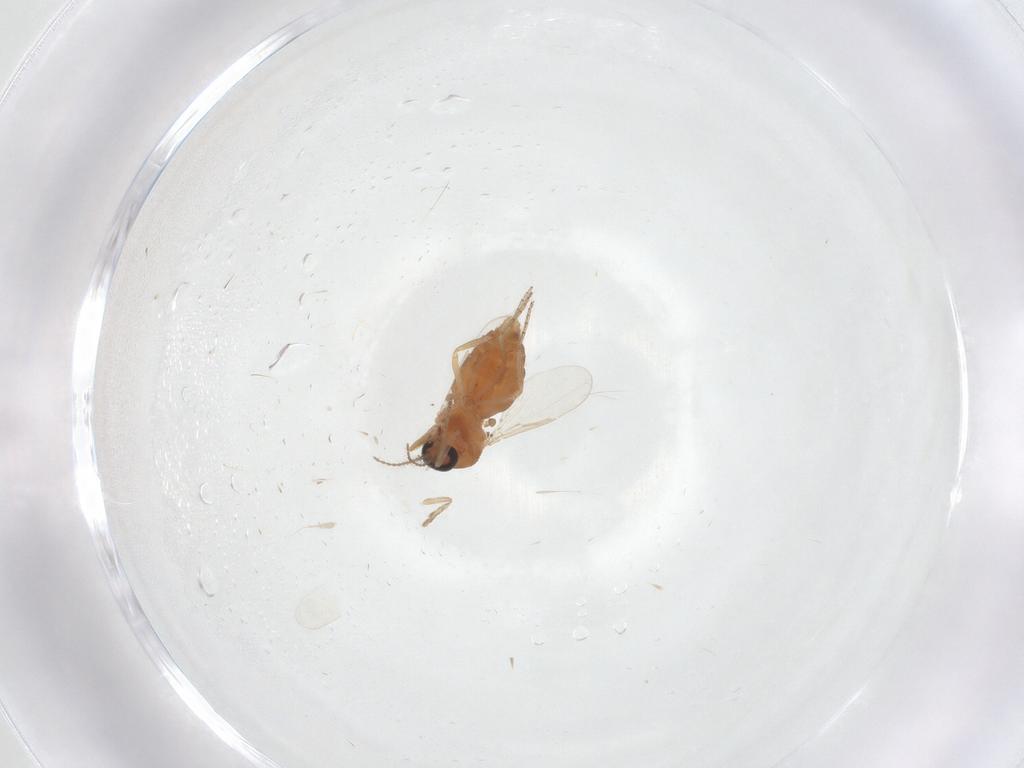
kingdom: Animalia
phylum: Arthropoda
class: Insecta
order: Diptera
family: Ceratopogonidae
